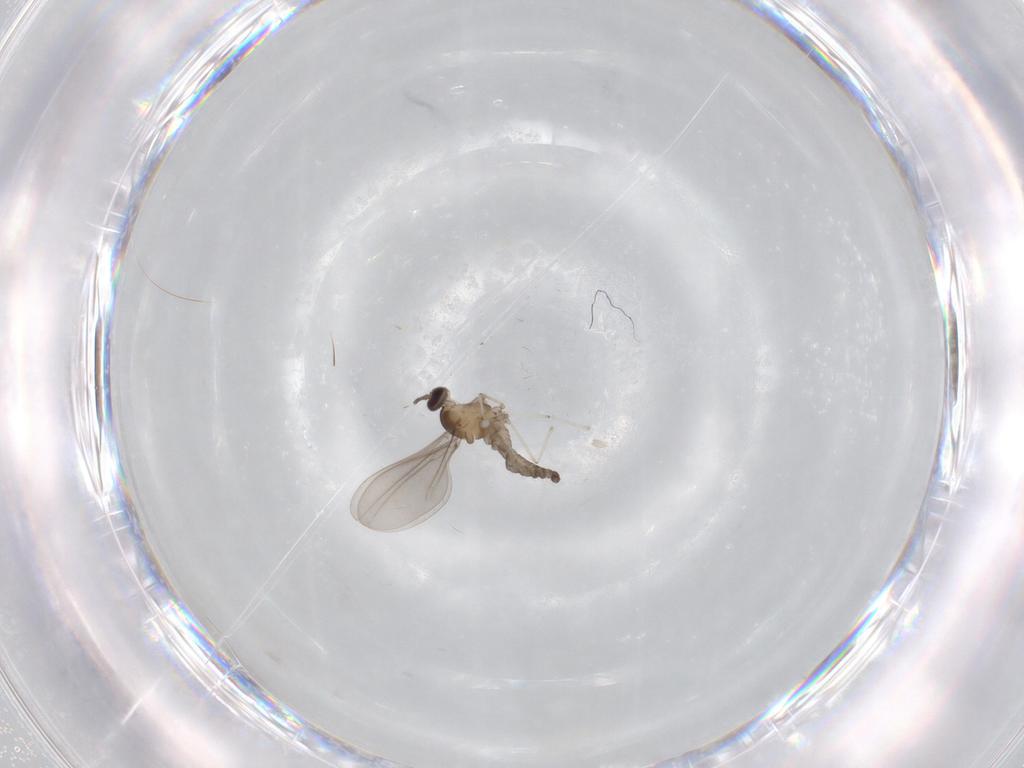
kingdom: Animalia
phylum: Arthropoda
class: Insecta
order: Diptera
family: Cecidomyiidae
